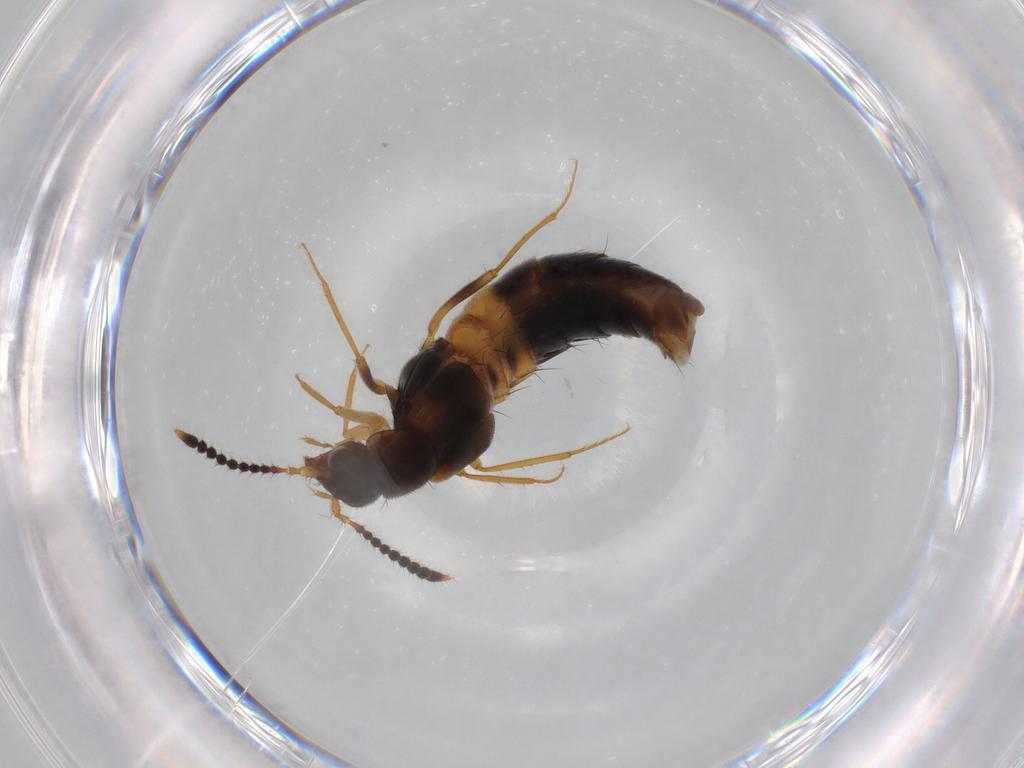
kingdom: Animalia
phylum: Arthropoda
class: Insecta
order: Coleoptera
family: Staphylinidae
